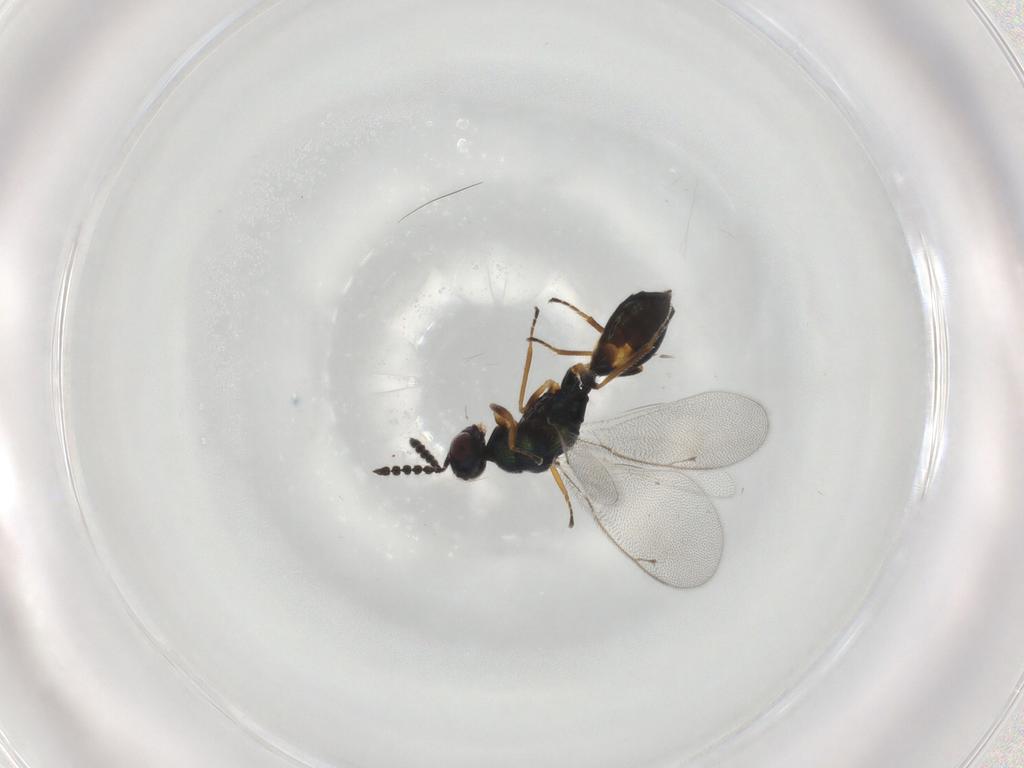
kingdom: Animalia
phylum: Arthropoda
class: Insecta
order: Hymenoptera
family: Eulophidae
